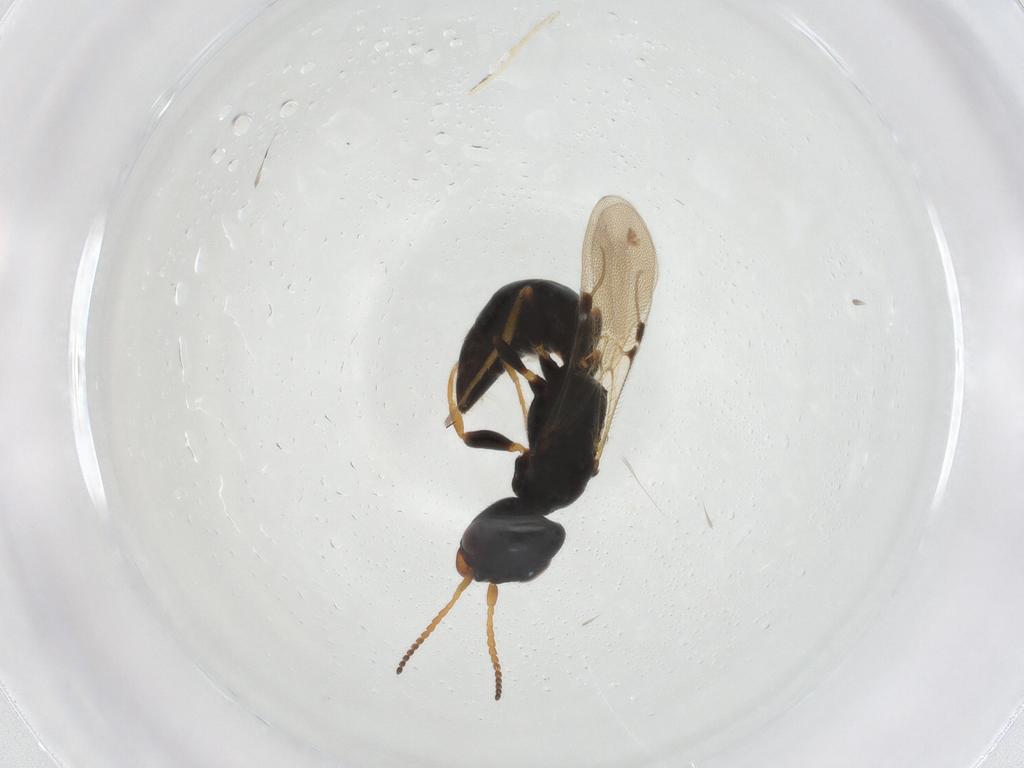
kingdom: Animalia
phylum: Arthropoda
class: Insecta
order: Hymenoptera
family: Bethylidae
